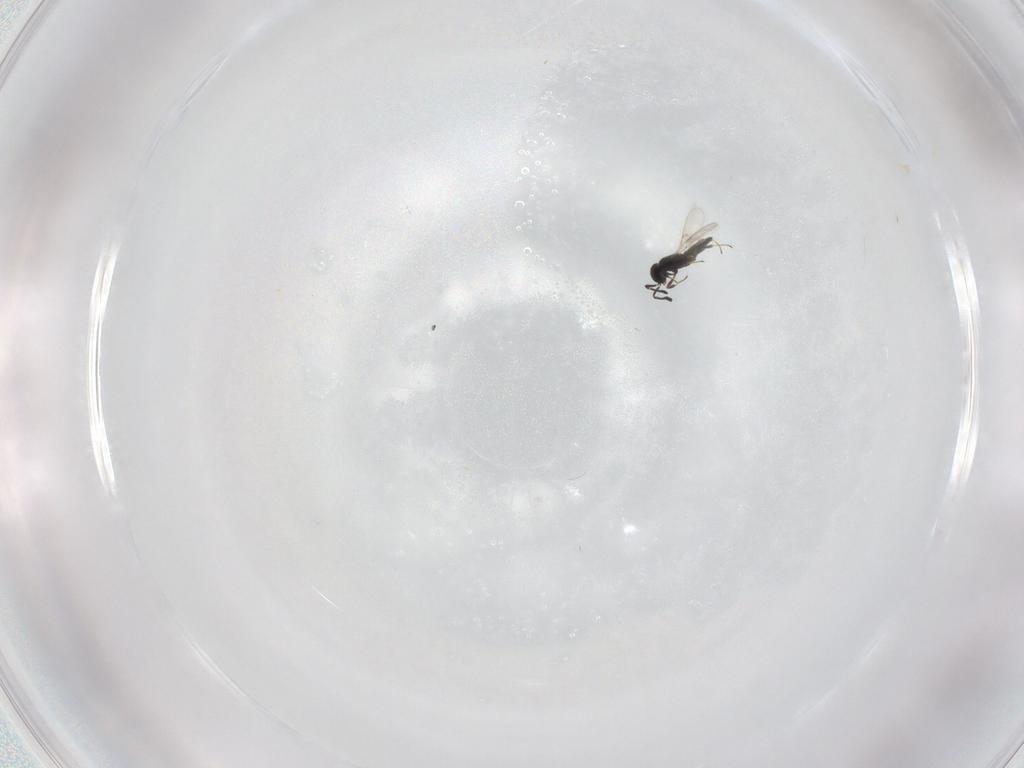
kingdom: Animalia
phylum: Arthropoda
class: Insecta
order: Hymenoptera
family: Scelionidae
